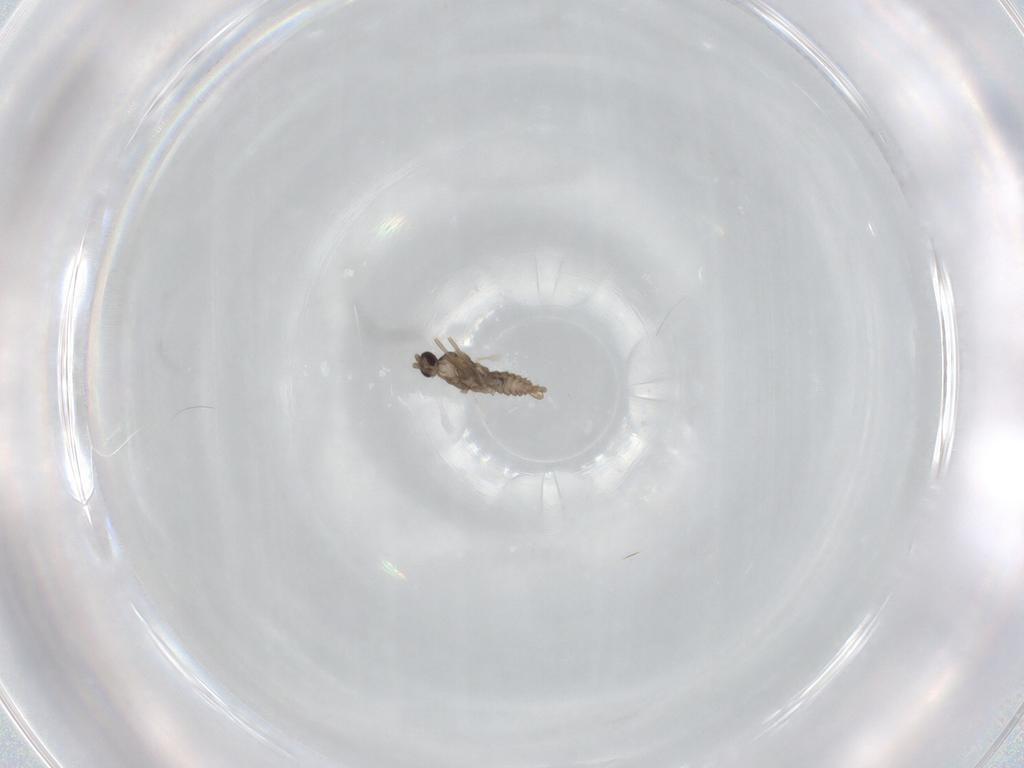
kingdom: Animalia
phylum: Arthropoda
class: Insecta
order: Diptera
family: Cecidomyiidae
